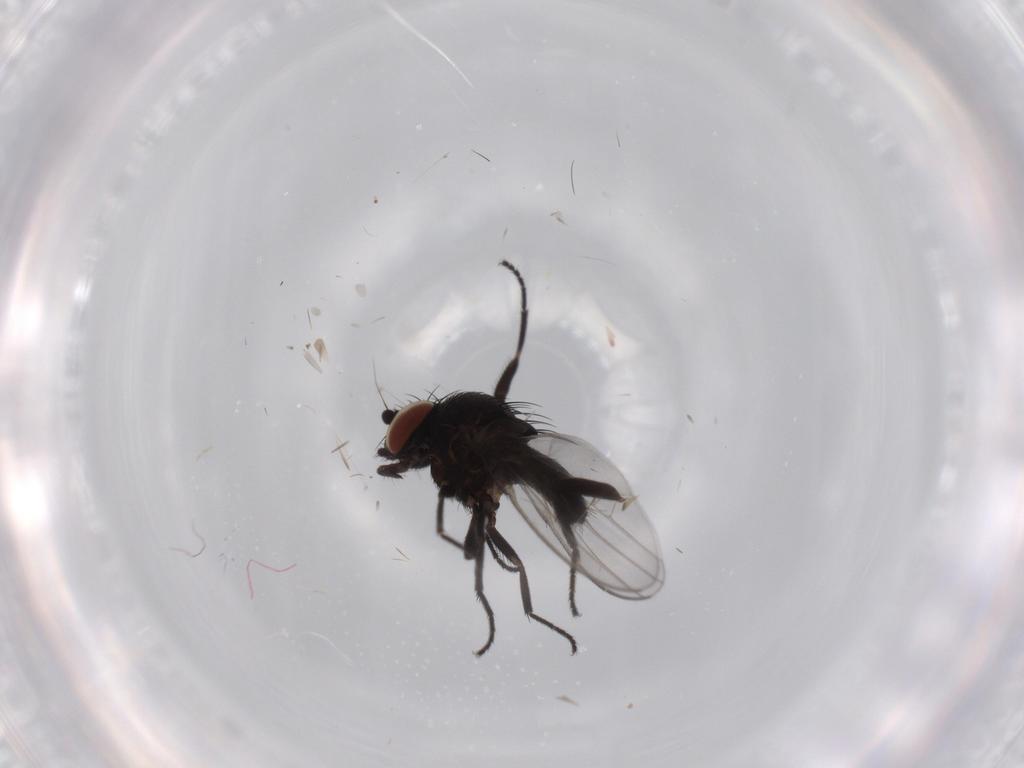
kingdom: Animalia
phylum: Arthropoda
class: Insecta
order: Diptera
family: Milichiidae
